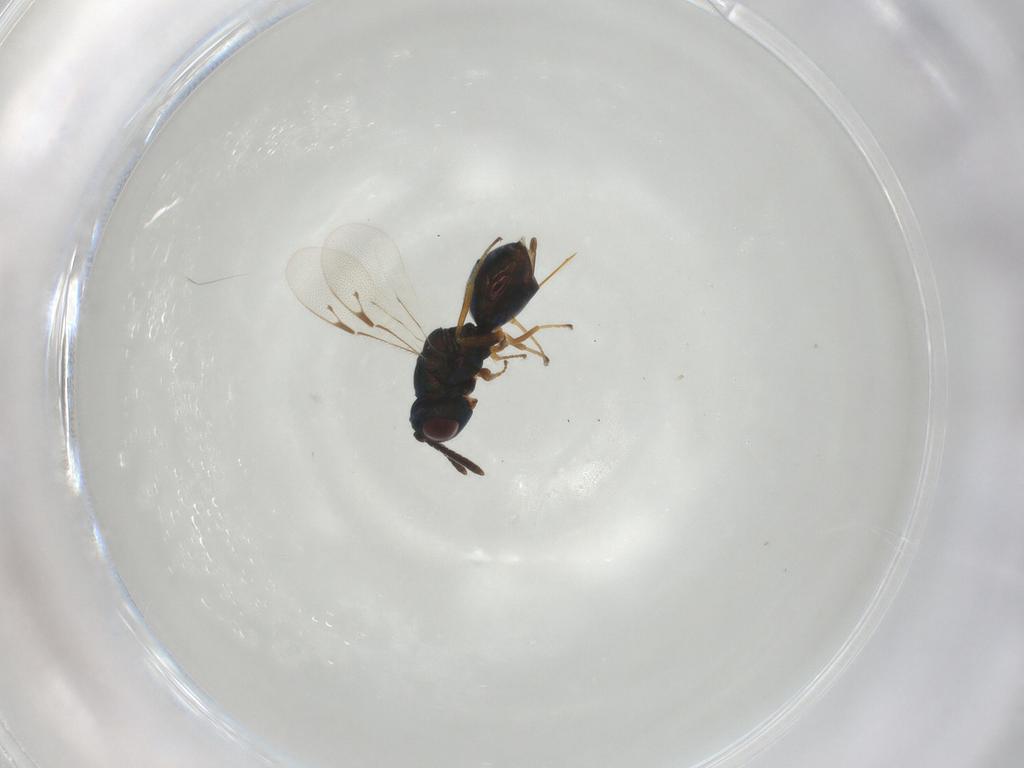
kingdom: Animalia
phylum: Arthropoda
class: Insecta
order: Hymenoptera
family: Pteromalidae
